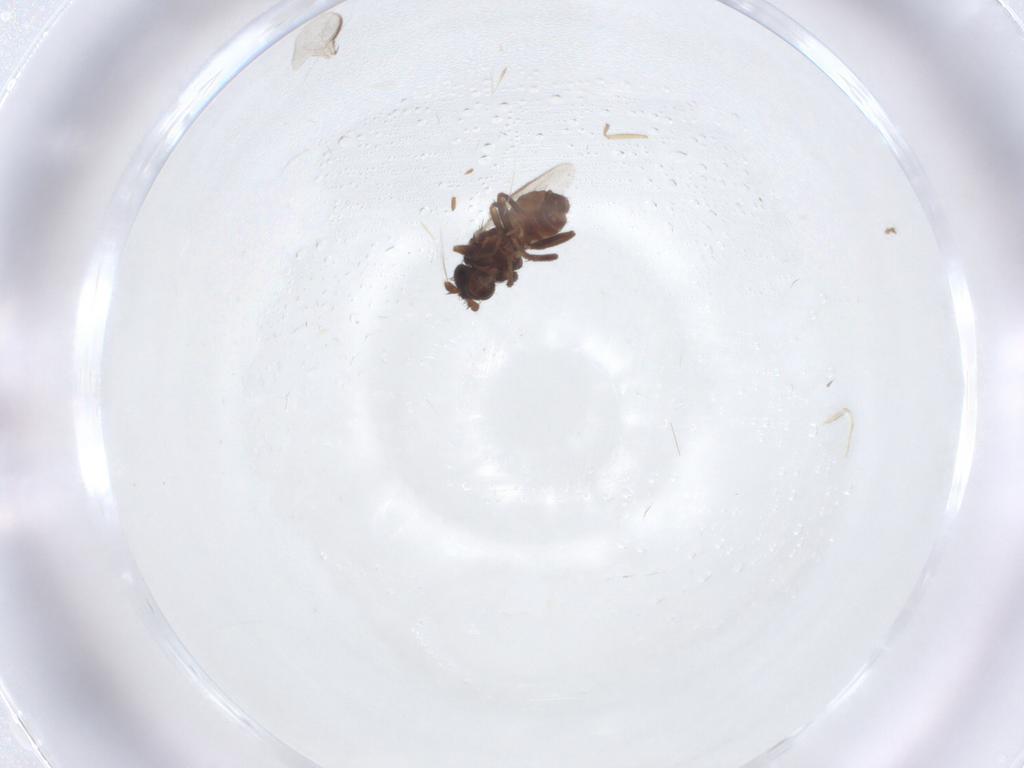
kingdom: Animalia
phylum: Arthropoda
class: Insecta
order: Diptera
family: Sphaeroceridae
